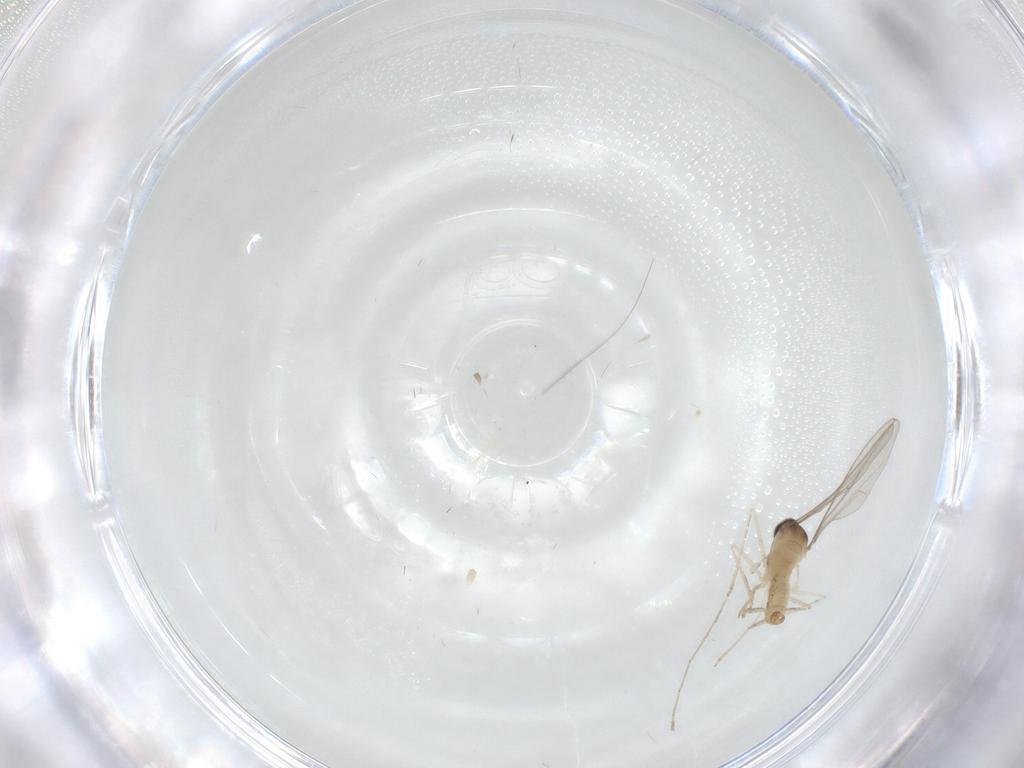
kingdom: Animalia
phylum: Arthropoda
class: Insecta
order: Diptera
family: Cecidomyiidae
